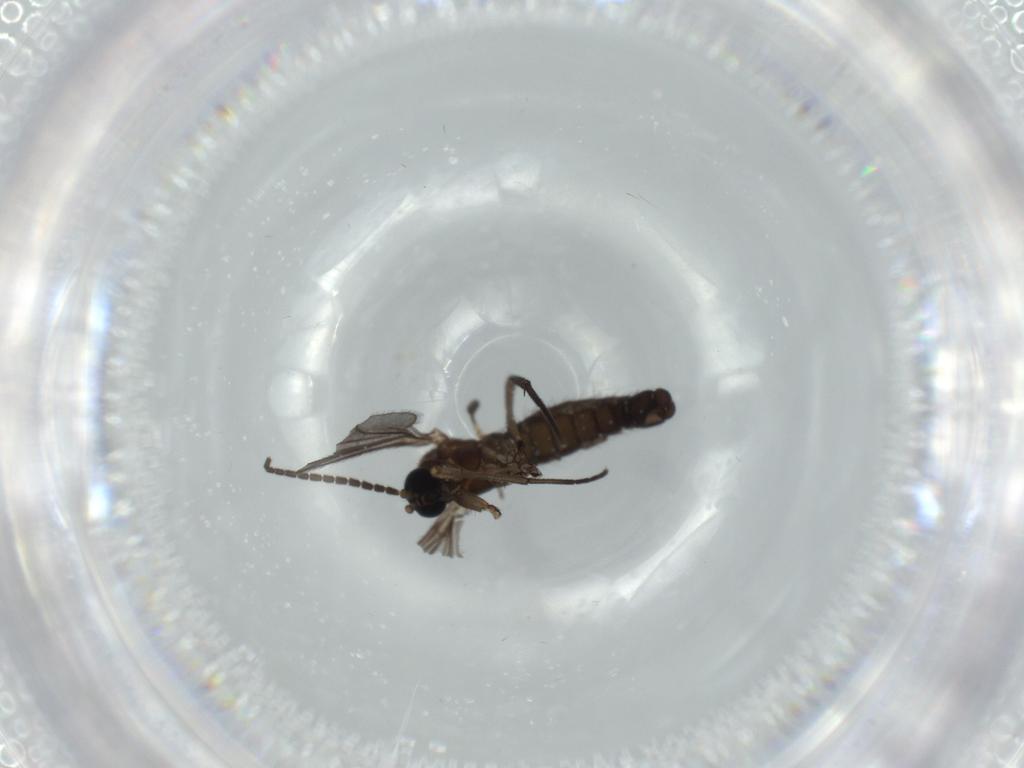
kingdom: Animalia
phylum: Arthropoda
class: Insecta
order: Diptera
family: Sciaridae
